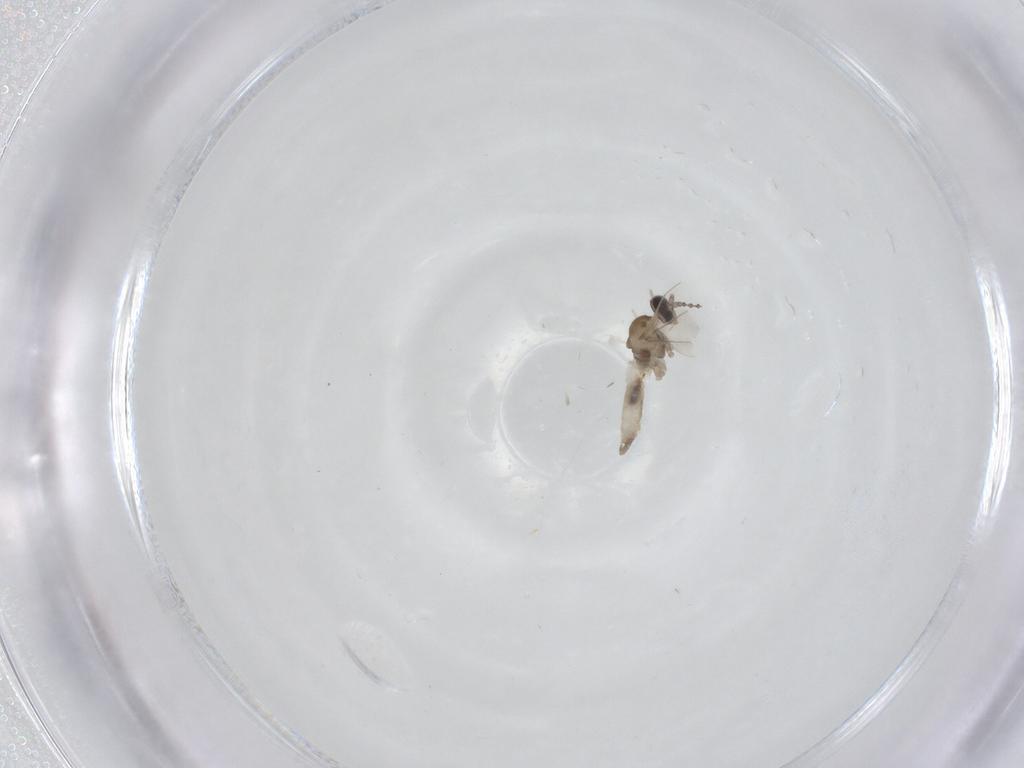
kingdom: Animalia
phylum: Arthropoda
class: Insecta
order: Diptera
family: Cecidomyiidae
